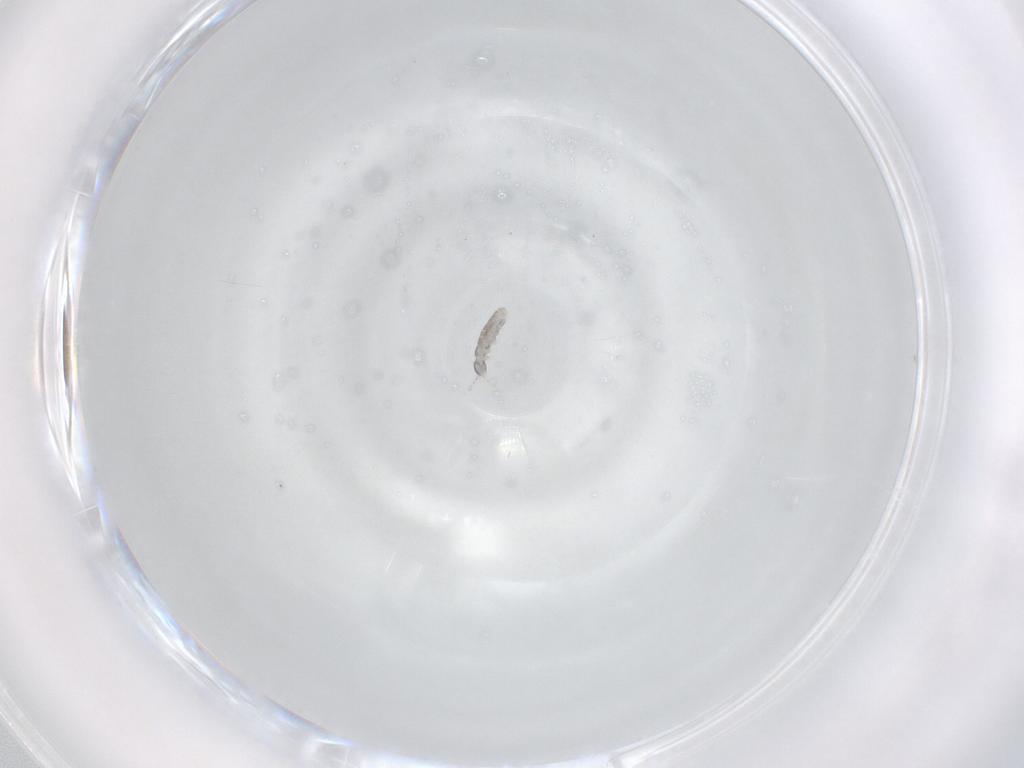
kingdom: Animalia
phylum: Arthropoda
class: Collembola
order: Entomobryomorpha
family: Isotomidae
